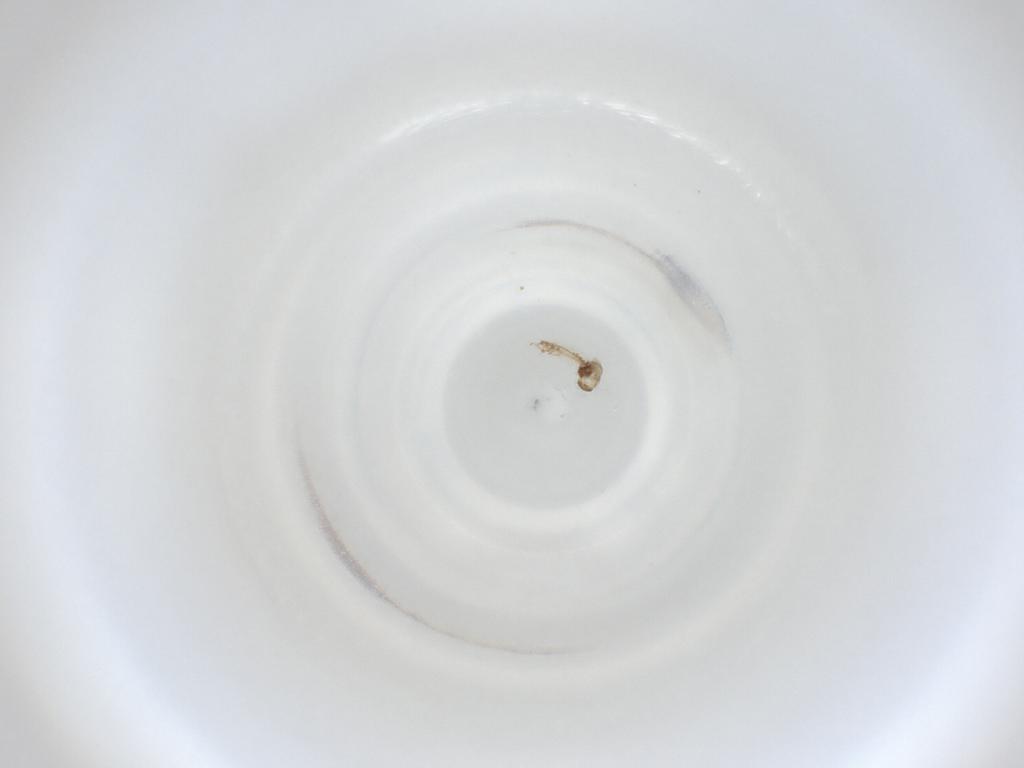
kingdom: Animalia
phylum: Arthropoda
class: Insecta
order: Diptera
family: Cecidomyiidae
